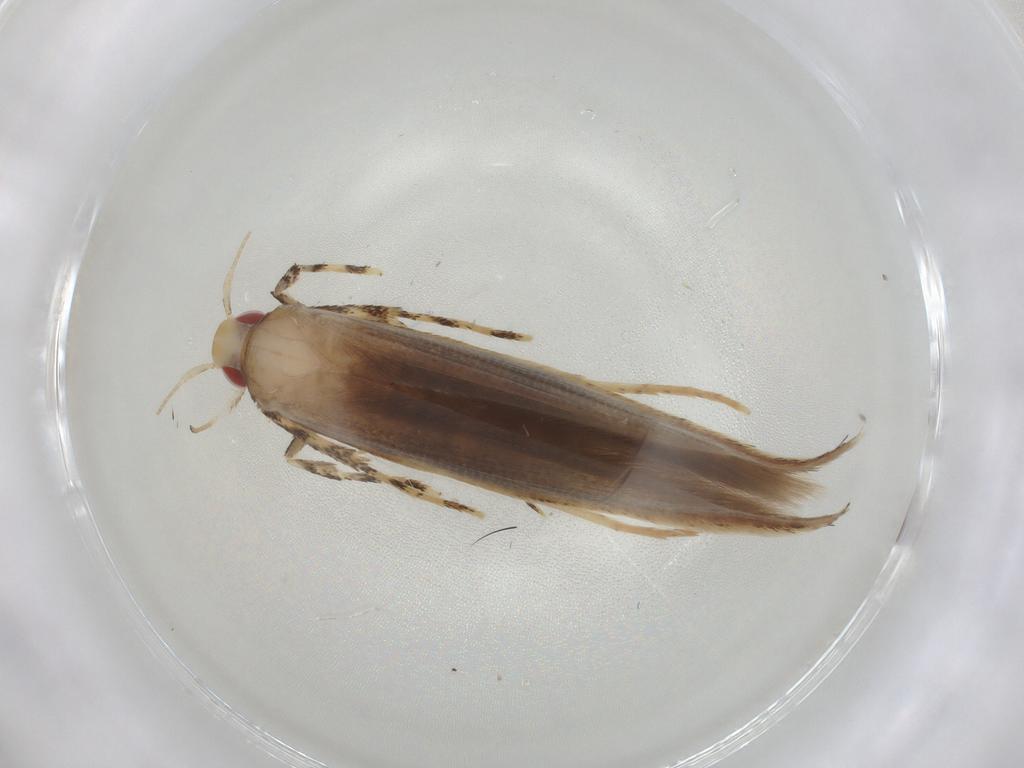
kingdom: Animalia
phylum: Arthropoda
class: Insecta
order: Lepidoptera
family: Cosmopterigidae
